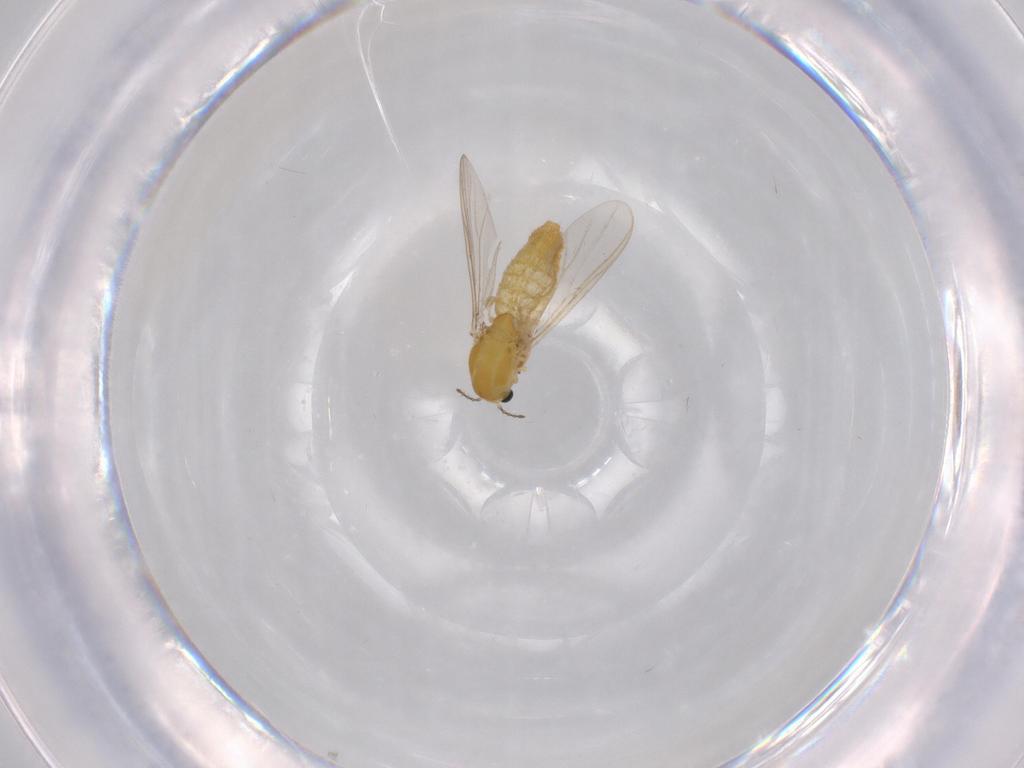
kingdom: Animalia
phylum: Arthropoda
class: Insecta
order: Diptera
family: Chironomidae
